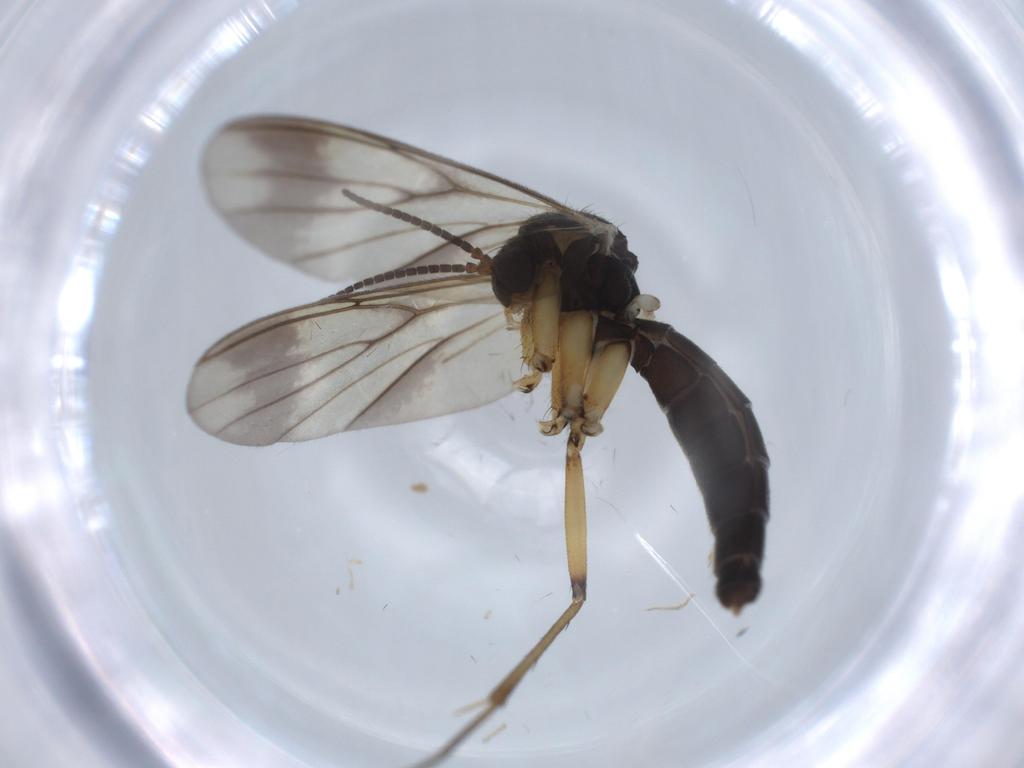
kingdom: Animalia
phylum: Arthropoda
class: Insecta
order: Diptera
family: Mycetophilidae
